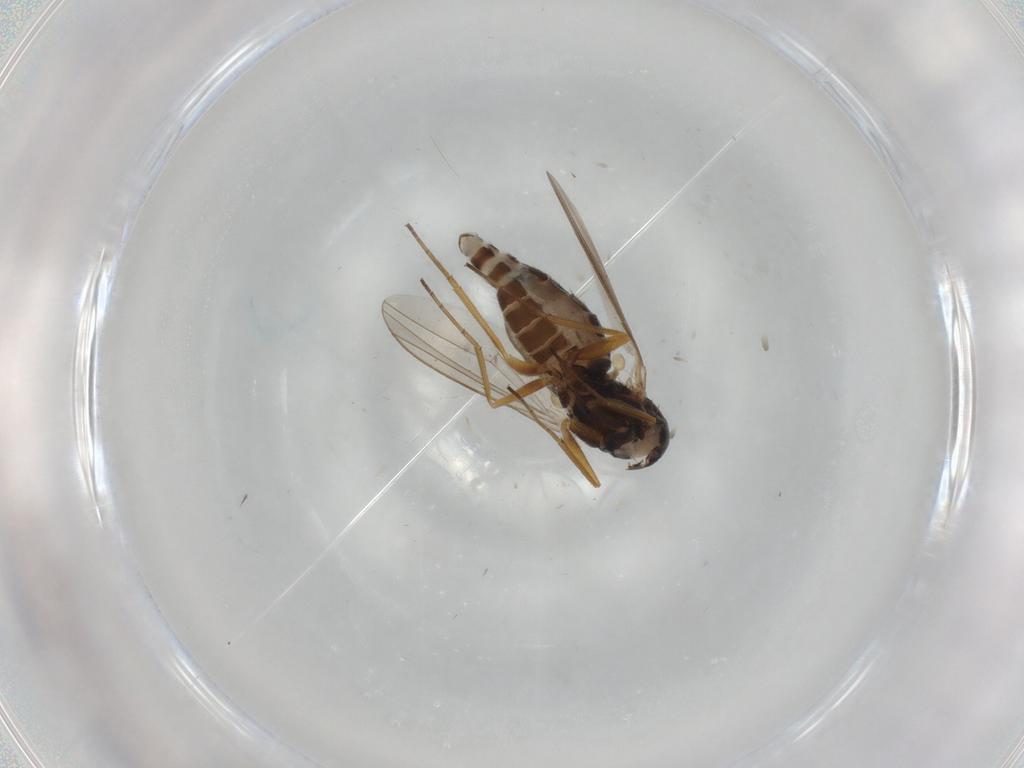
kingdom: Animalia
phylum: Arthropoda
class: Insecta
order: Diptera
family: Dolichopodidae
